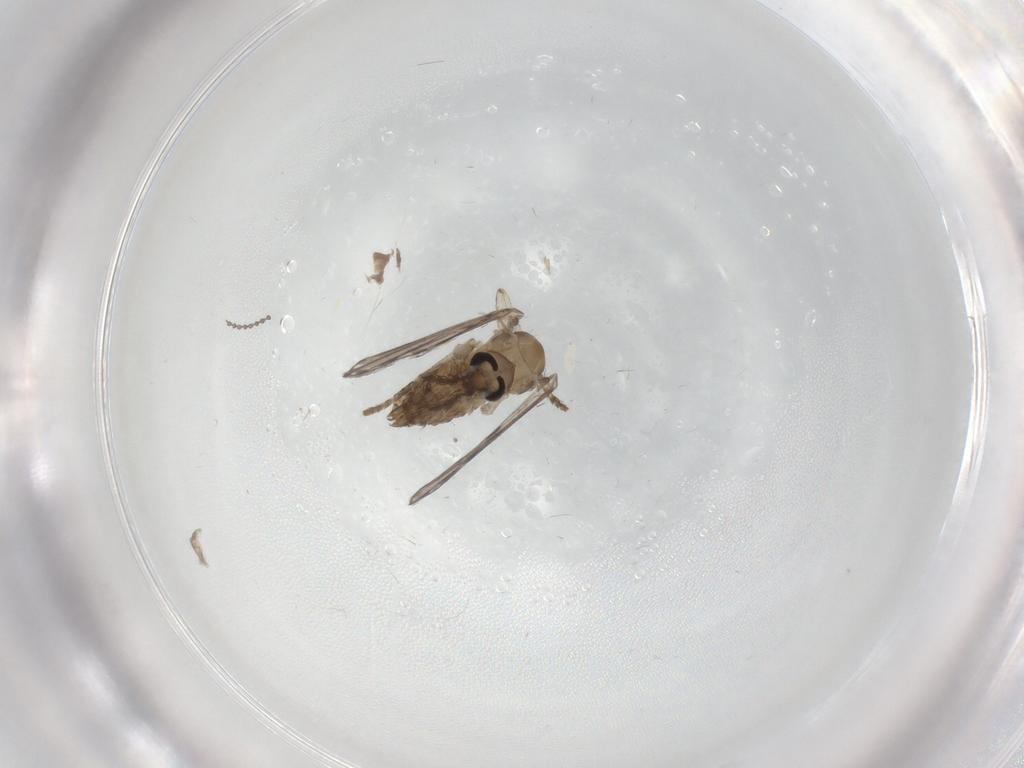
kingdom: Animalia
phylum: Arthropoda
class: Insecta
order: Diptera
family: Psychodidae
